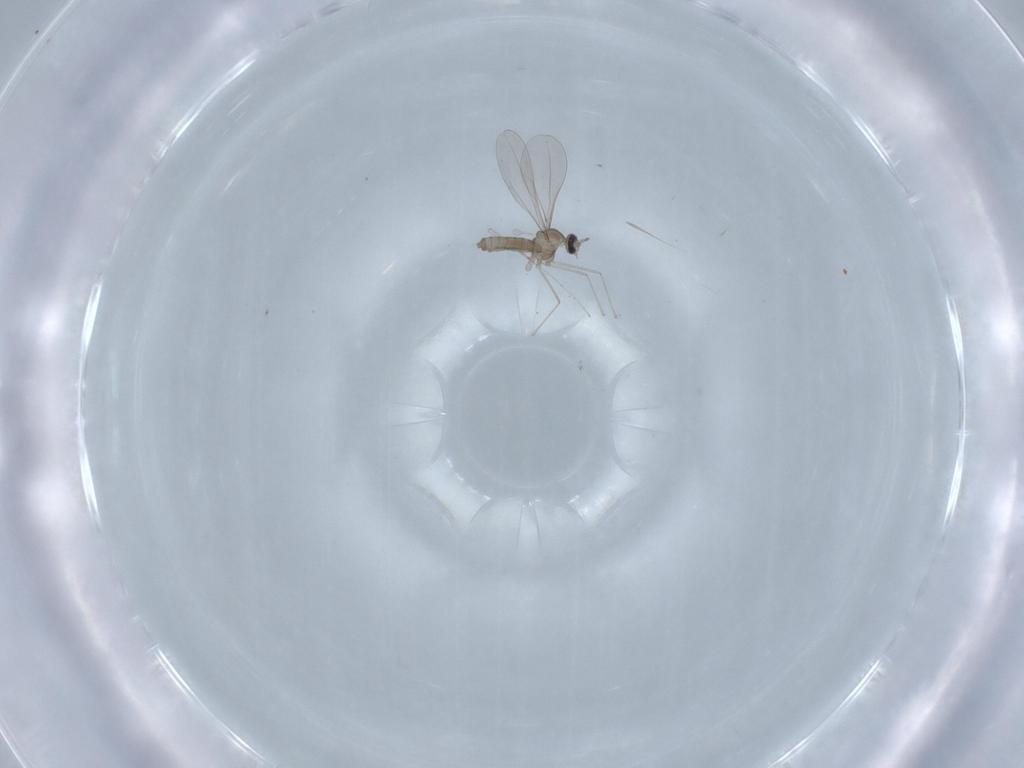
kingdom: Animalia
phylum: Arthropoda
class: Insecta
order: Diptera
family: Cecidomyiidae
